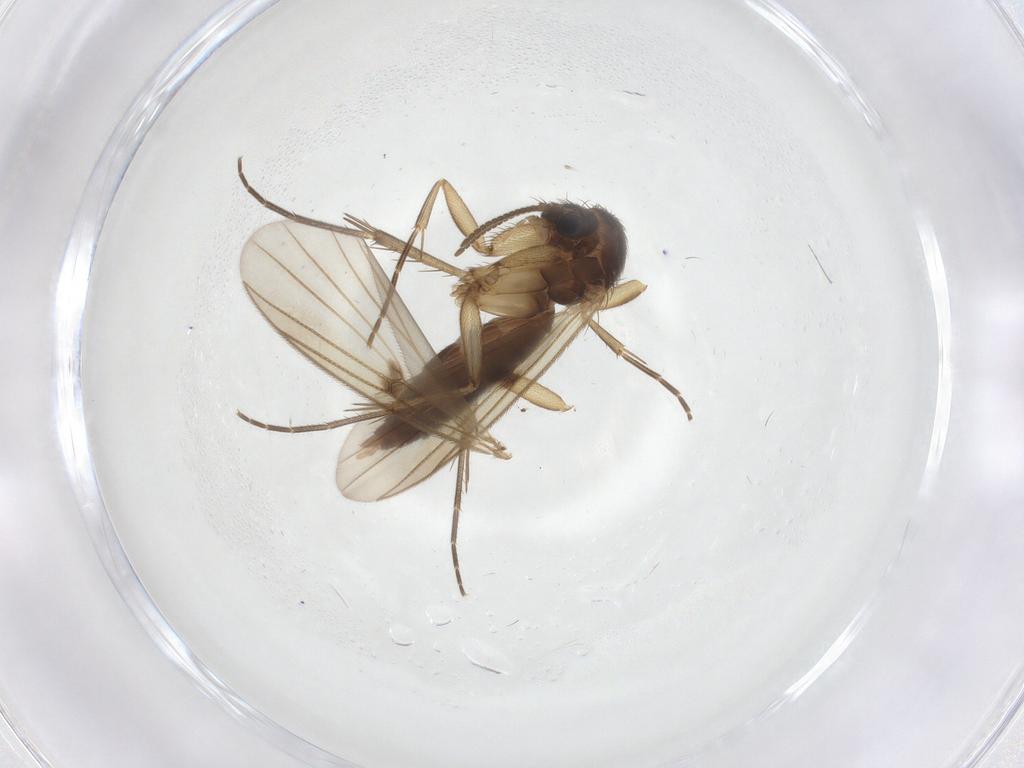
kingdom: Animalia
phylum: Arthropoda
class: Insecta
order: Diptera
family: Mycetophilidae
